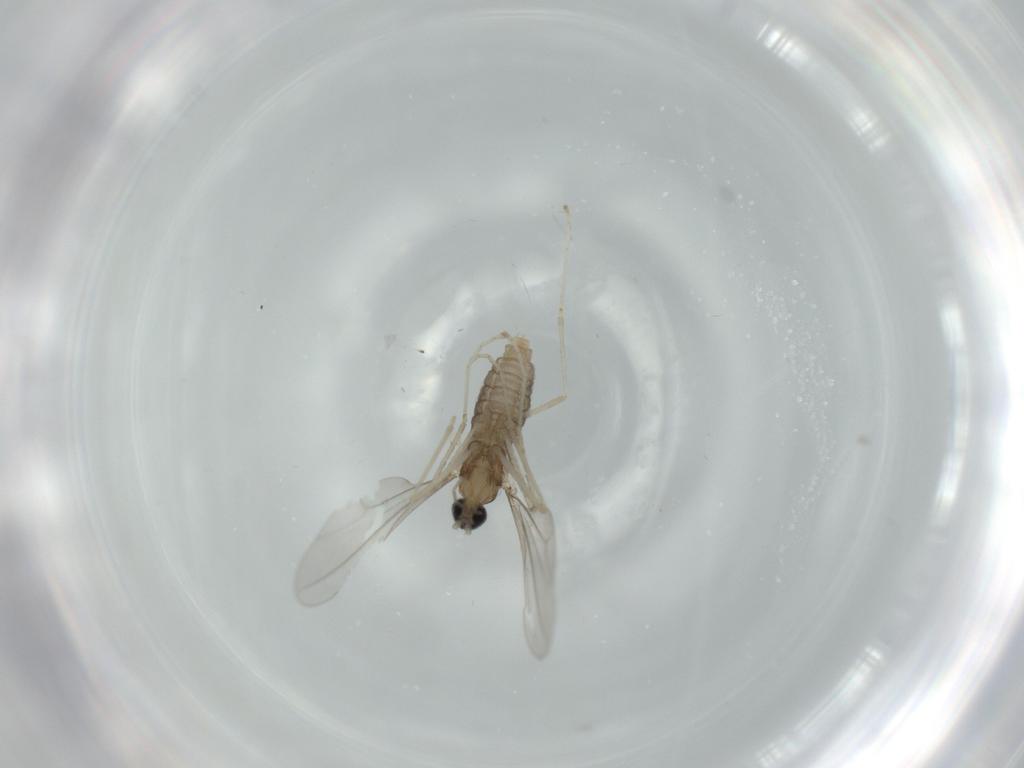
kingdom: Animalia
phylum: Arthropoda
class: Insecta
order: Diptera
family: Cecidomyiidae
